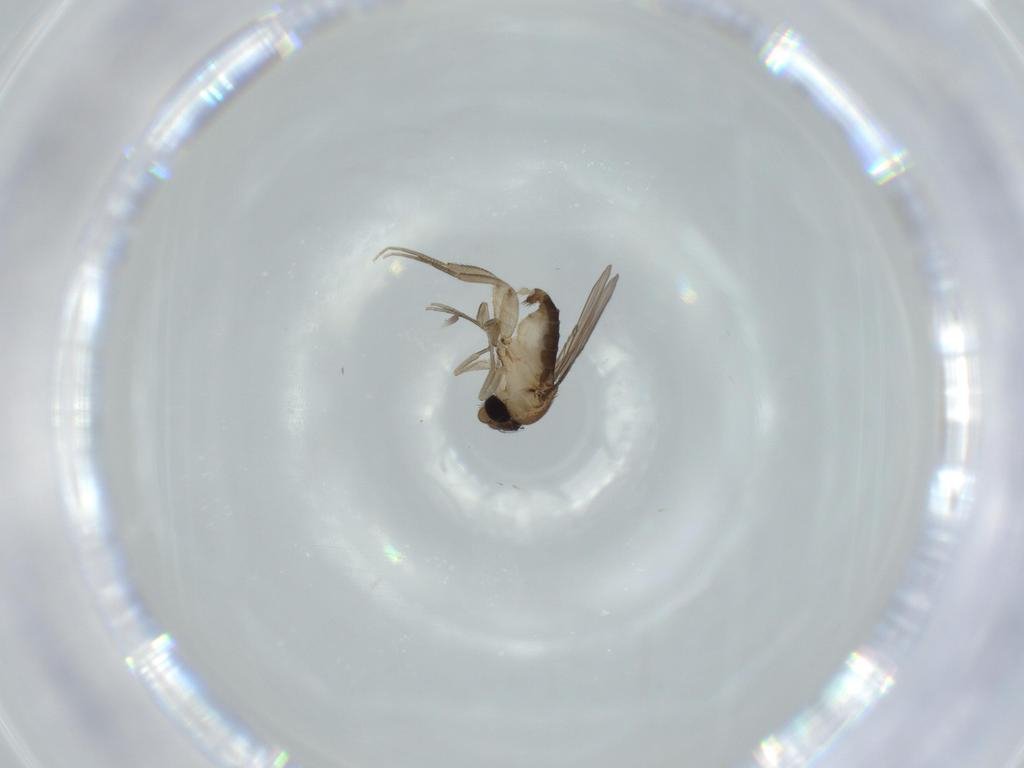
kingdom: Animalia
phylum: Arthropoda
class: Insecta
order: Diptera
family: Phoridae
